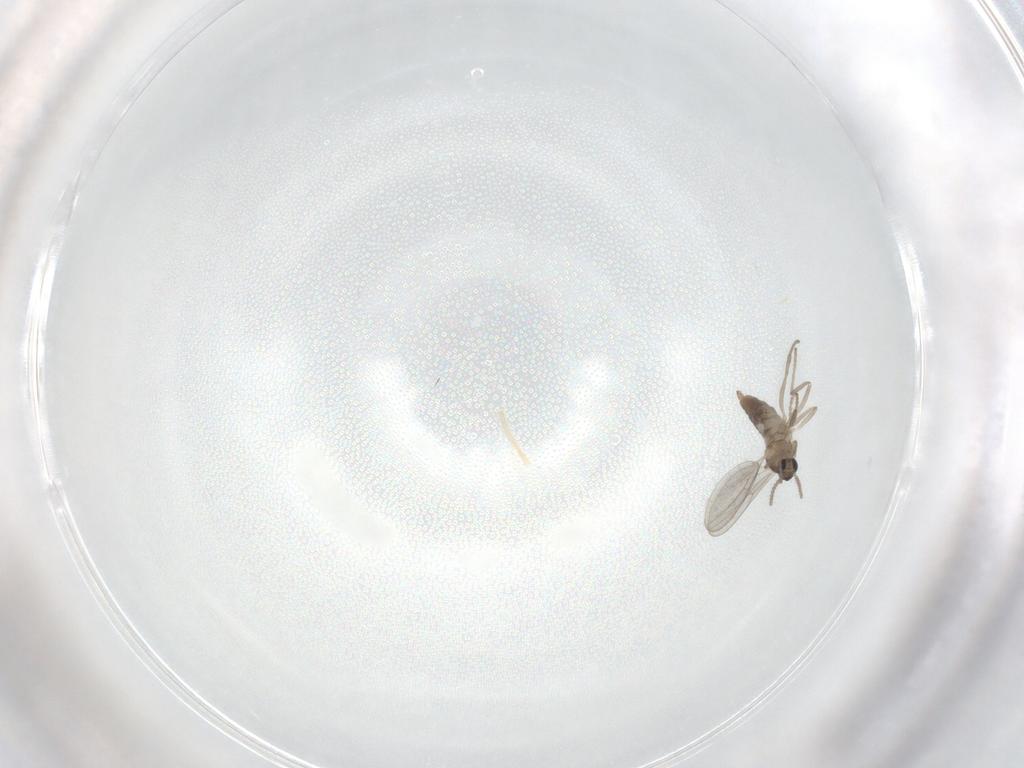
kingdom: Animalia
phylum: Arthropoda
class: Insecta
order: Diptera
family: Cecidomyiidae
